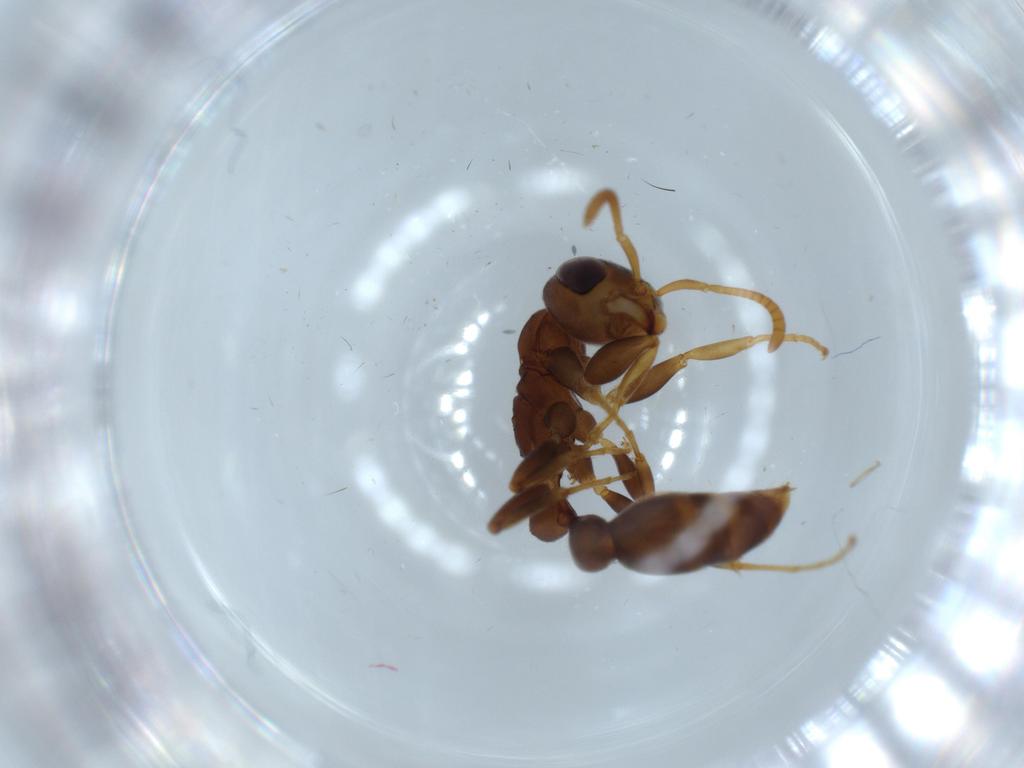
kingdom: Animalia
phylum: Arthropoda
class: Insecta
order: Hymenoptera
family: Formicidae
